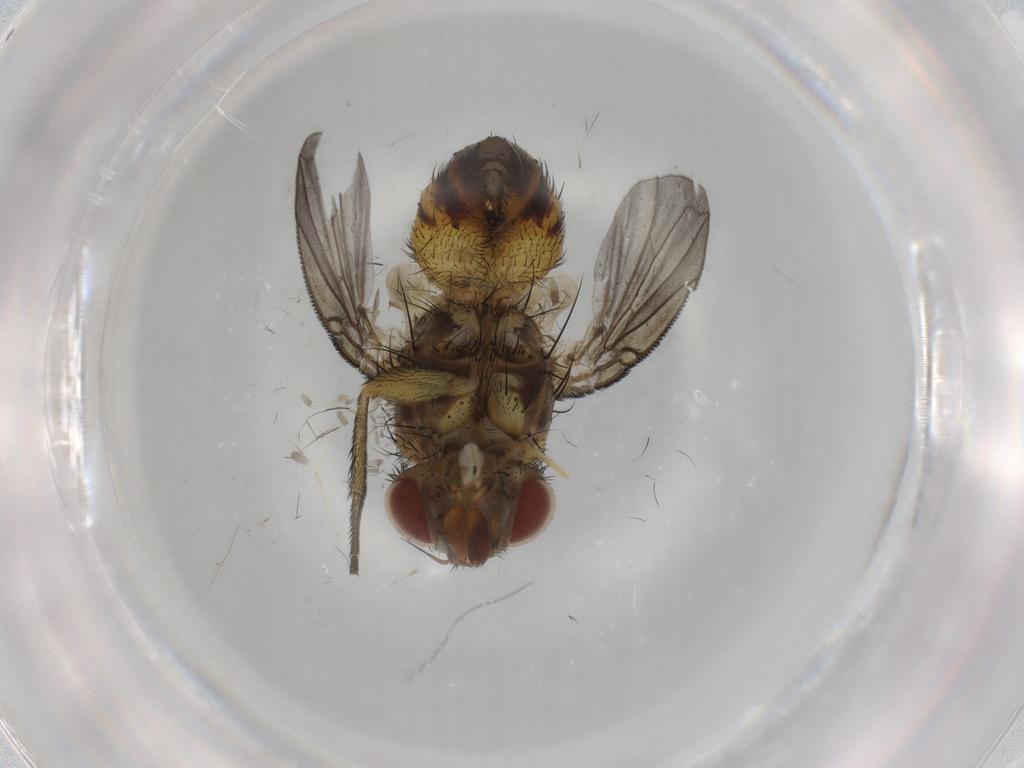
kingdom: Animalia
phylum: Arthropoda
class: Insecta
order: Diptera
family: Tachinidae
